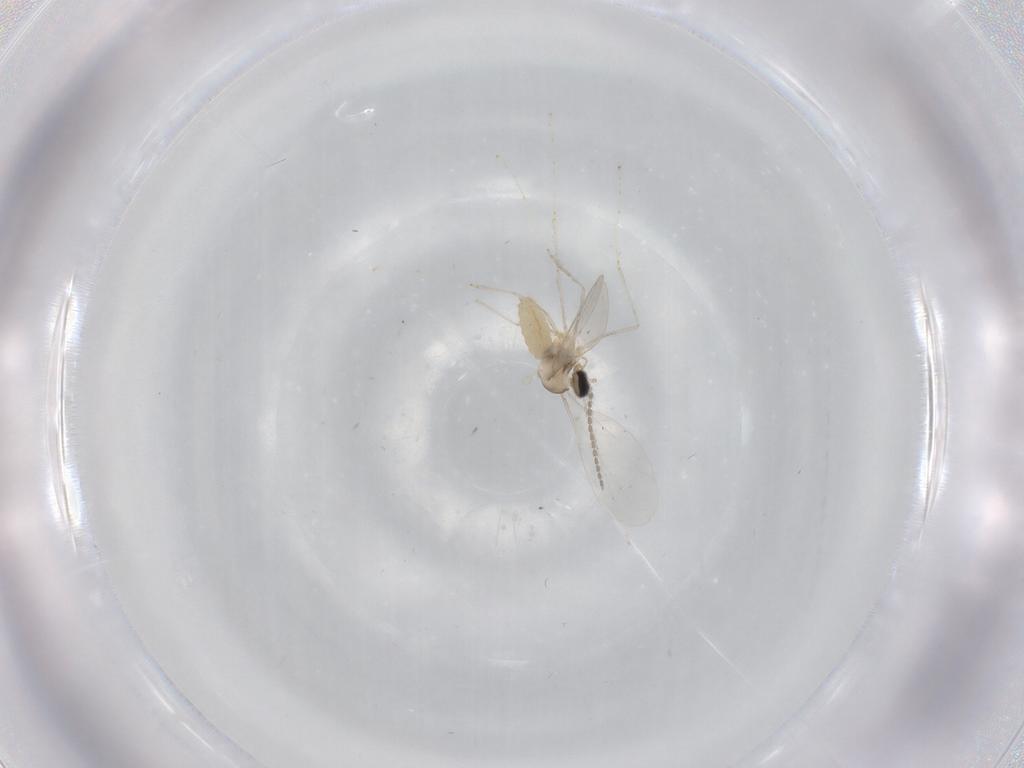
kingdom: Animalia
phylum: Arthropoda
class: Insecta
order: Diptera
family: Cecidomyiidae
